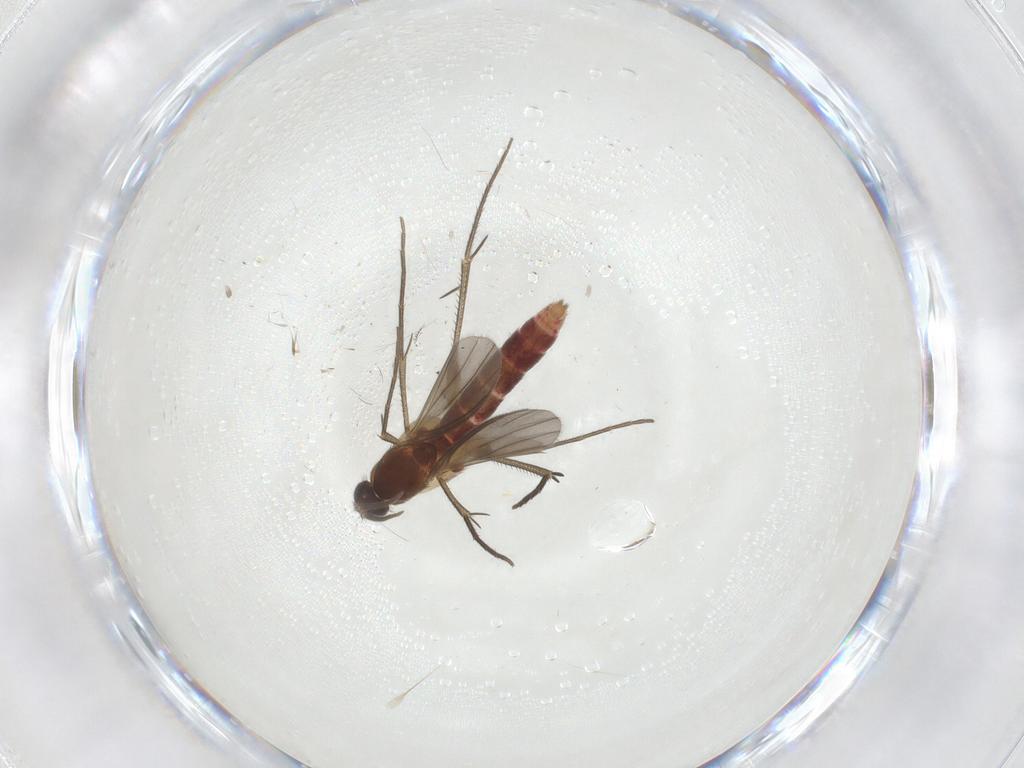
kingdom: Animalia
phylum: Arthropoda
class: Insecta
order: Diptera
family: Mycetophilidae
